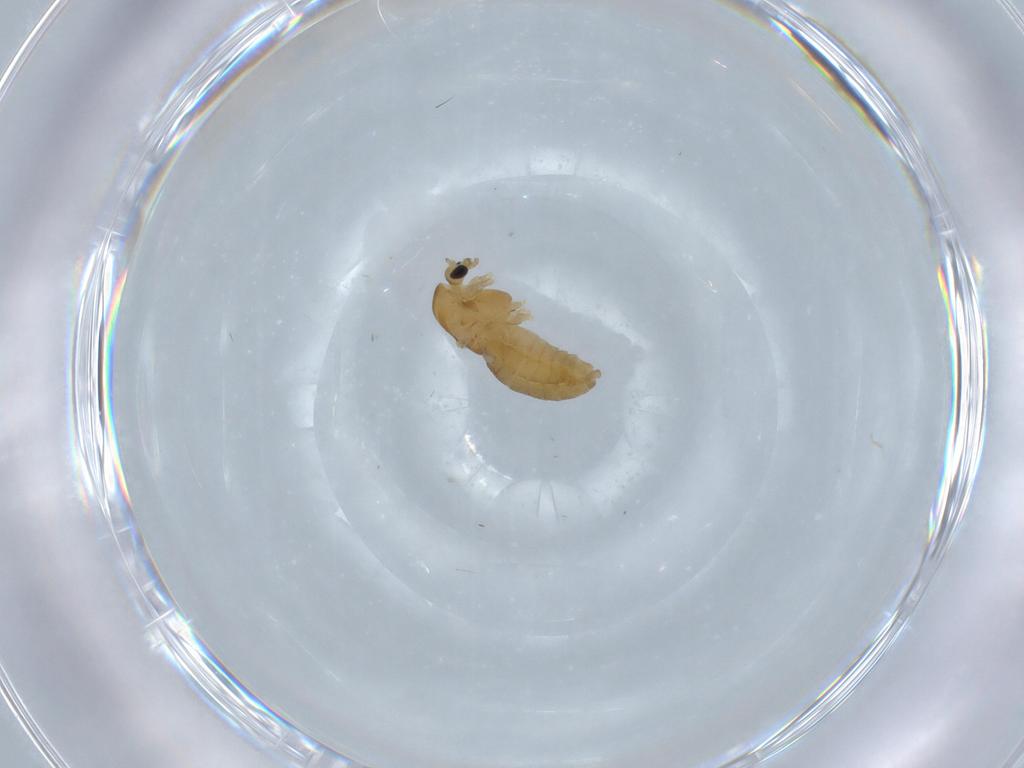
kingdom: Animalia
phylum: Arthropoda
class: Insecta
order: Diptera
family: Chironomidae
